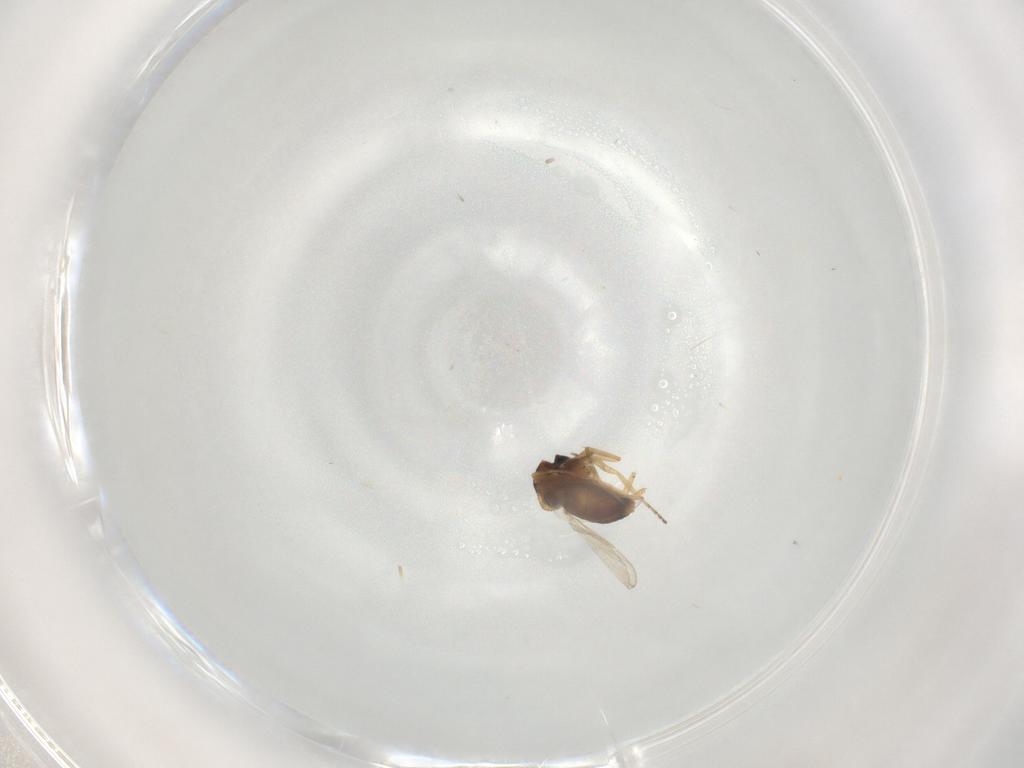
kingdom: Animalia
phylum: Arthropoda
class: Insecta
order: Diptera
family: Ceratopogonidae
